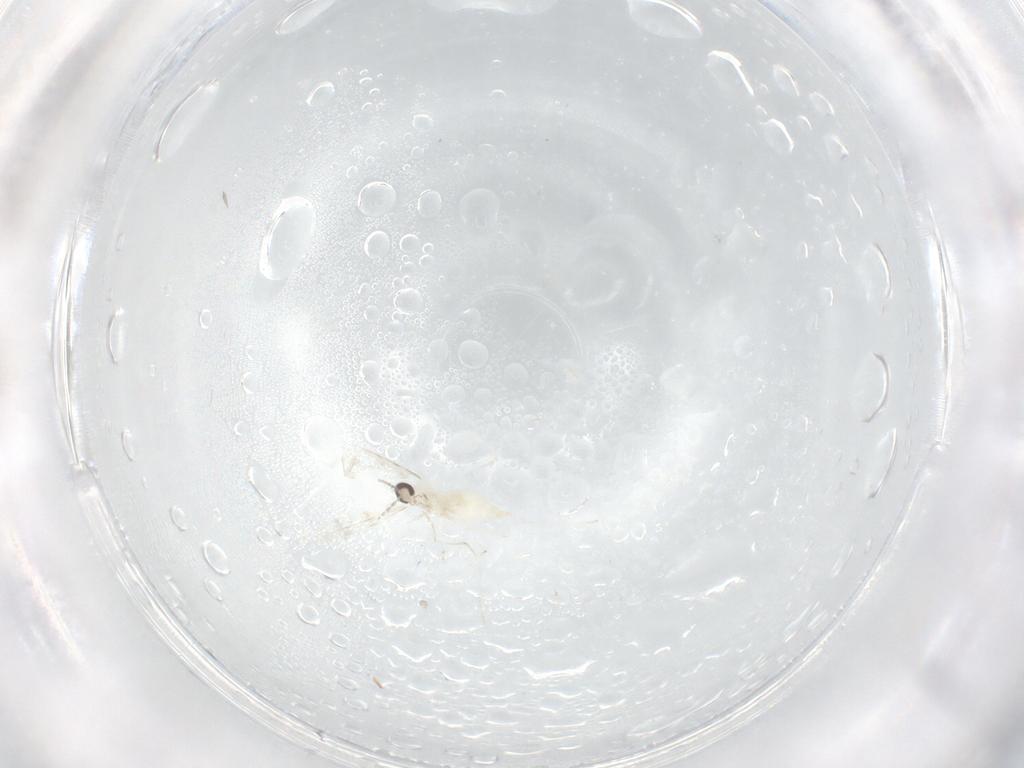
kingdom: Animalia
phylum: Arthropoda
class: Insecta
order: Diptera
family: Cecidomyiidae
